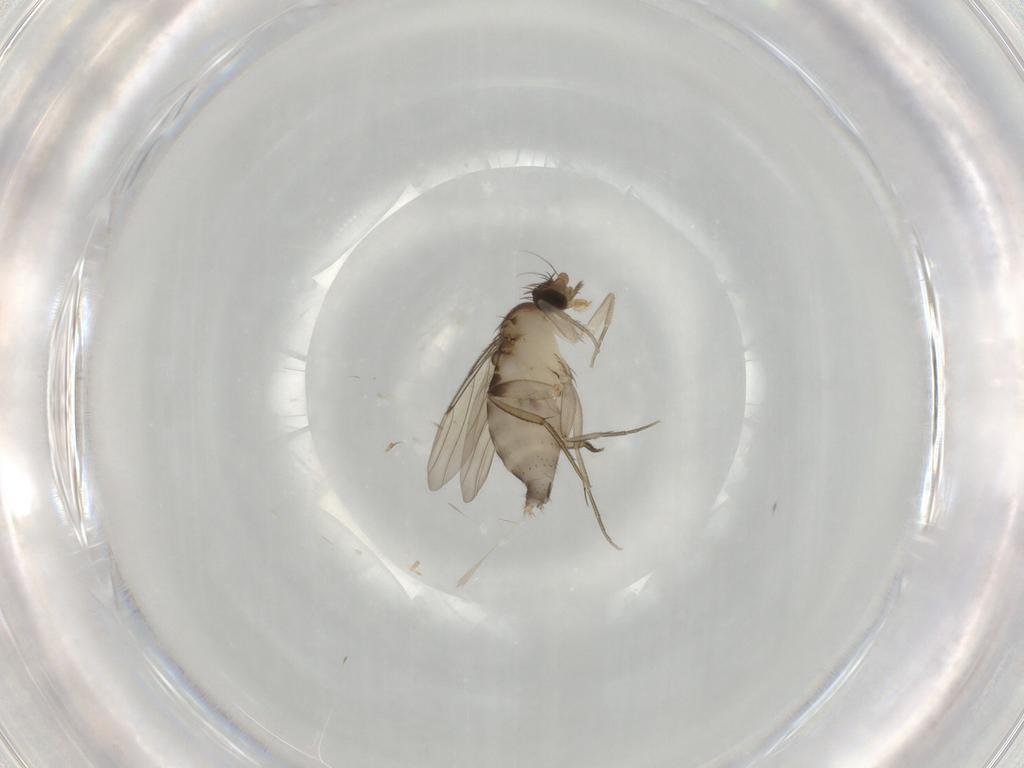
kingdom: Animalia
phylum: Arthropoda
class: Insecta
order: Diptera
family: Phoridae
